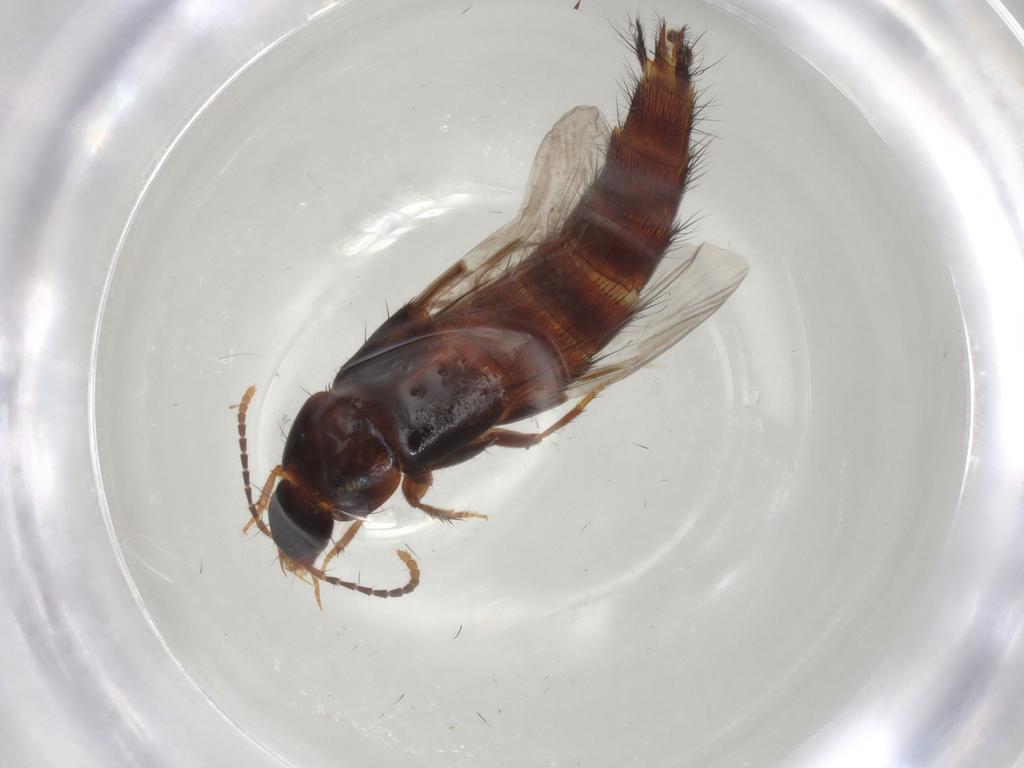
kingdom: Animalia
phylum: Arthropoda
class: Insecta
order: Coleoptera
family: Staphylinidae
